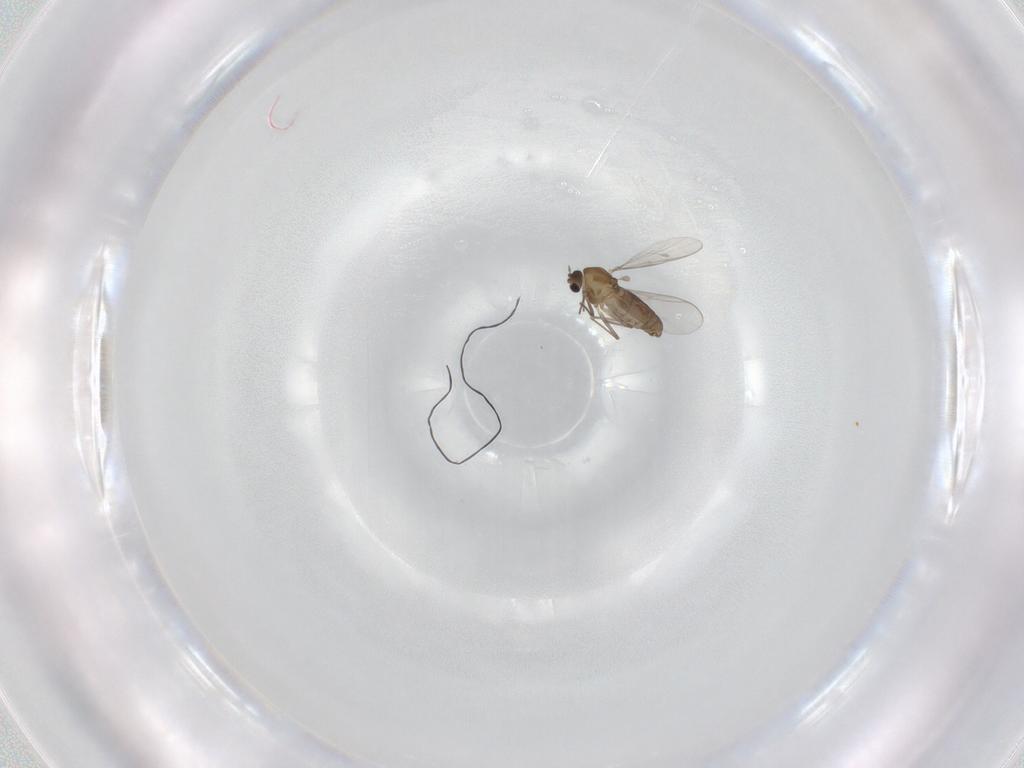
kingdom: Animalia
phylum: Arthropoda
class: Insecta
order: Diptera
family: Chironomidae
